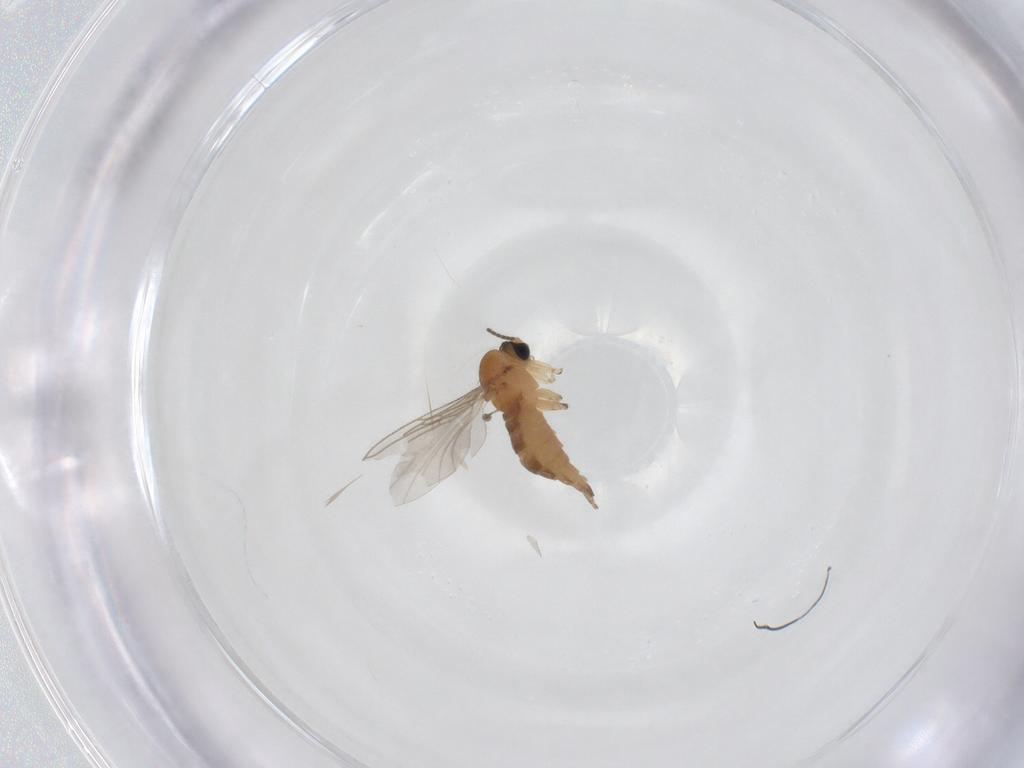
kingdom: Animalia
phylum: Arthropoda
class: Insecta
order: Diptera
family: Sciaridae
